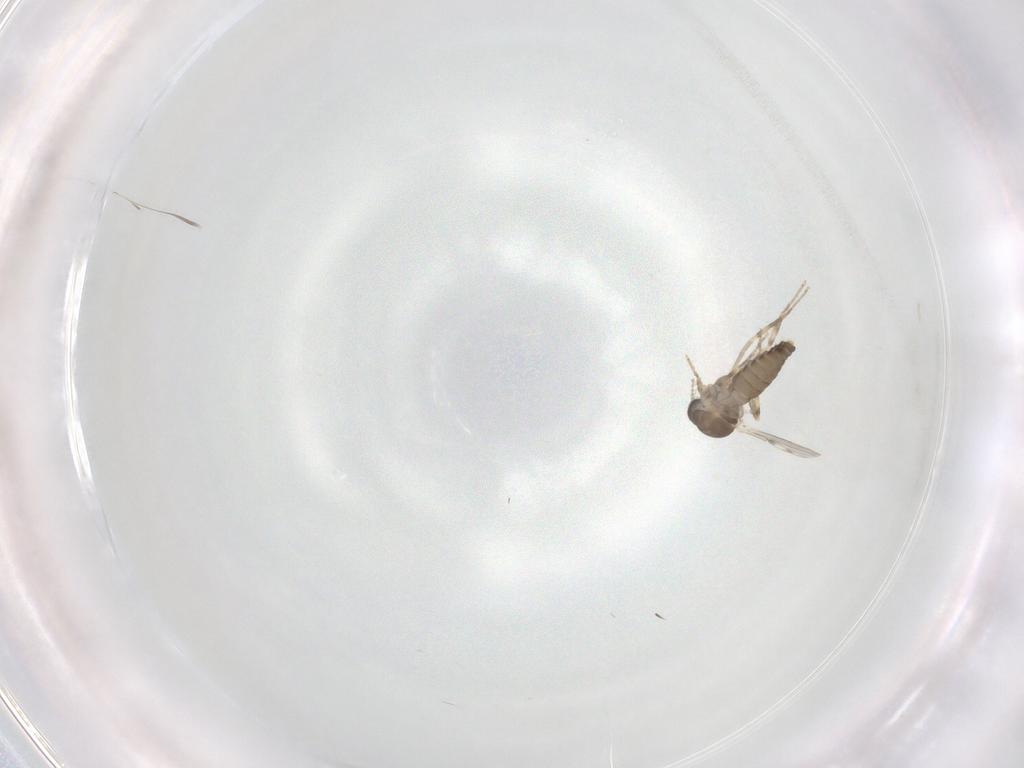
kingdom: Animalia
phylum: Arthropoda
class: Insecta
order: Diptera
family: Ceratopogonidae
